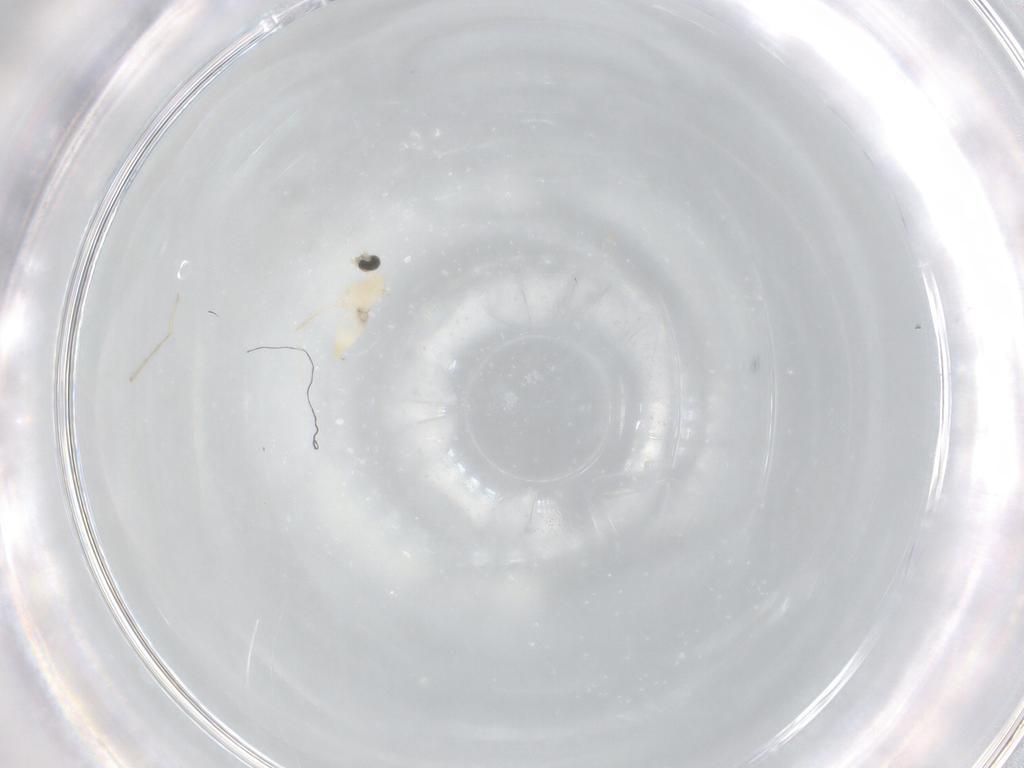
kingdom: Animalia
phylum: Arthropoda
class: Insecta
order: Diptera
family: Cecidomyiidae
